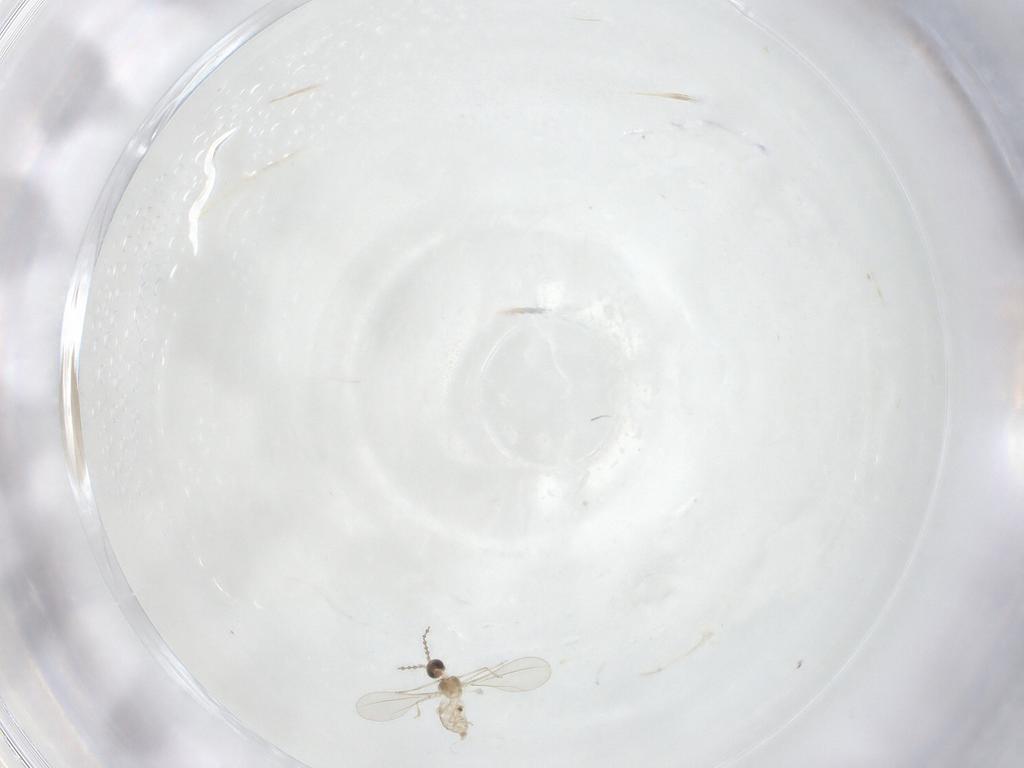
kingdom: Animalia
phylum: Arthropoda
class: Insecta
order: Diptera
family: Cecidomyiidae
